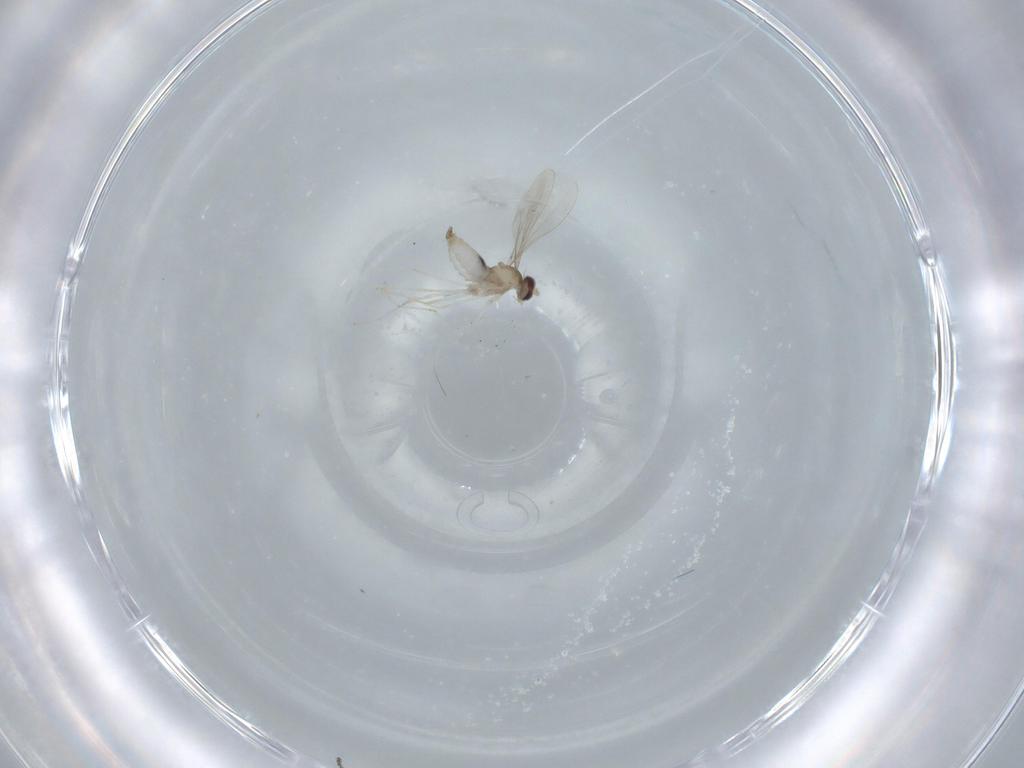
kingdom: Animalia
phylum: Arthropoda
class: Insecta
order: Diptera
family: Cecidomyiidae
